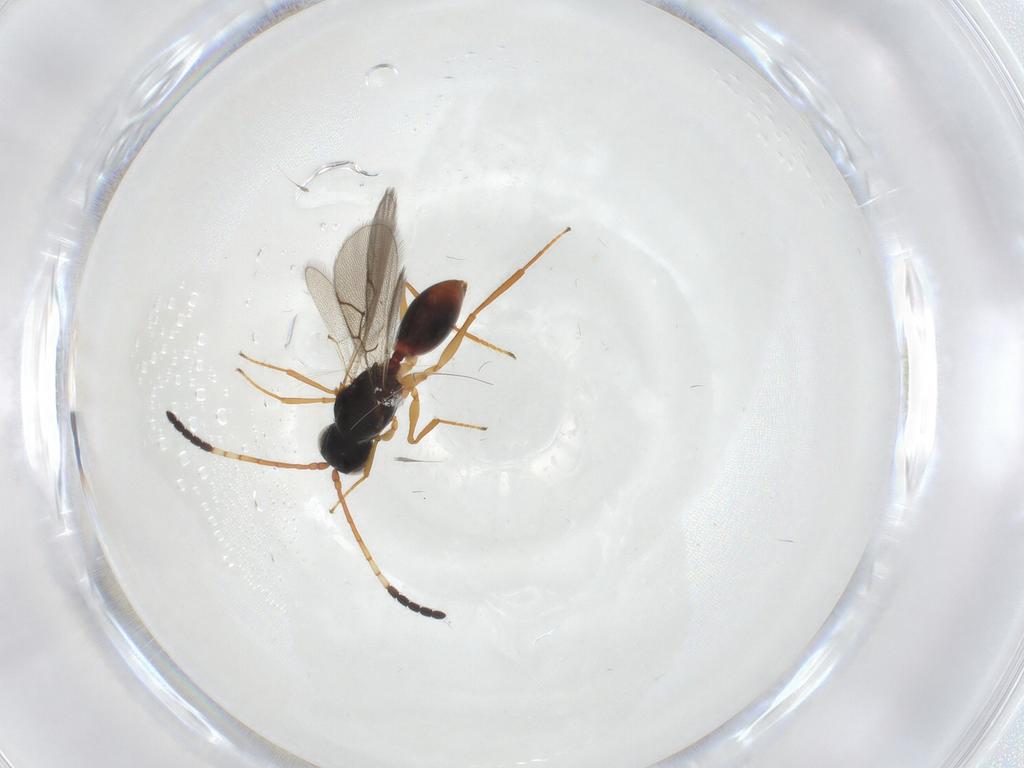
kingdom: Animalia
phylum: Arthropoda
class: Insecta
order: Hymenoptera
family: Figitidae
